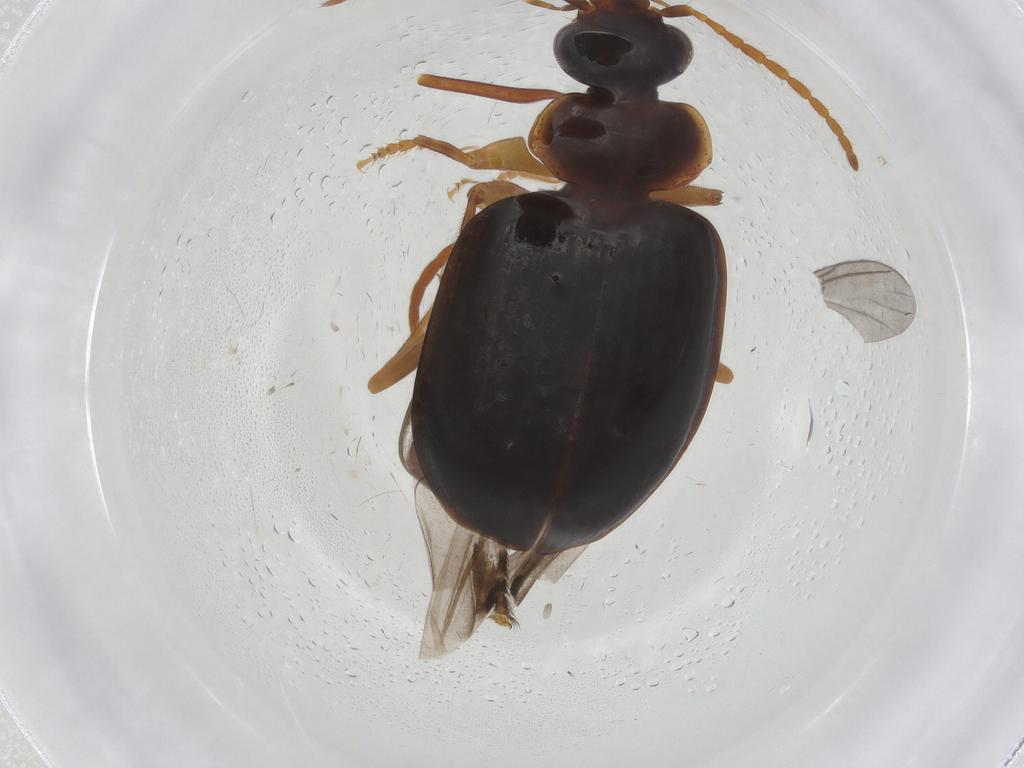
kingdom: Animalia
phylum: Arthropoda
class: Insecta
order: Coleoptera
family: Carabidae
